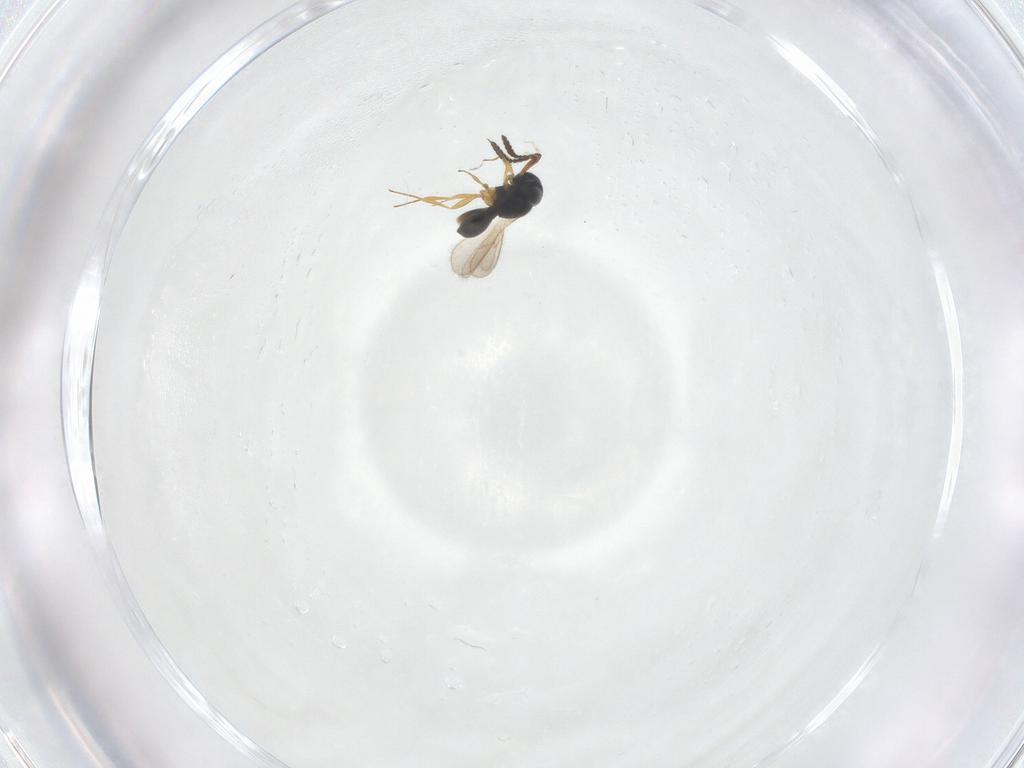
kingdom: Animalia
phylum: Arthropoda
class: Insecta
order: Hymenoptera
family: Scelionidae
